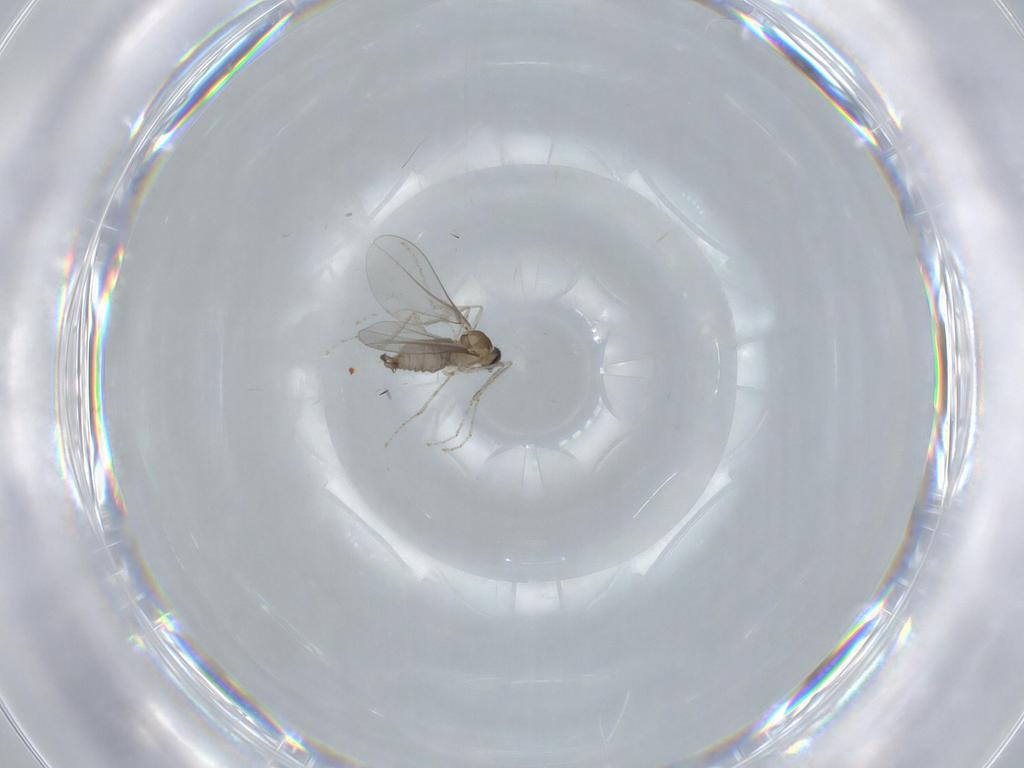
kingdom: Animalia
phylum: Arthropoda
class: Insecta
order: Diptera
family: Cecidomyiidae
